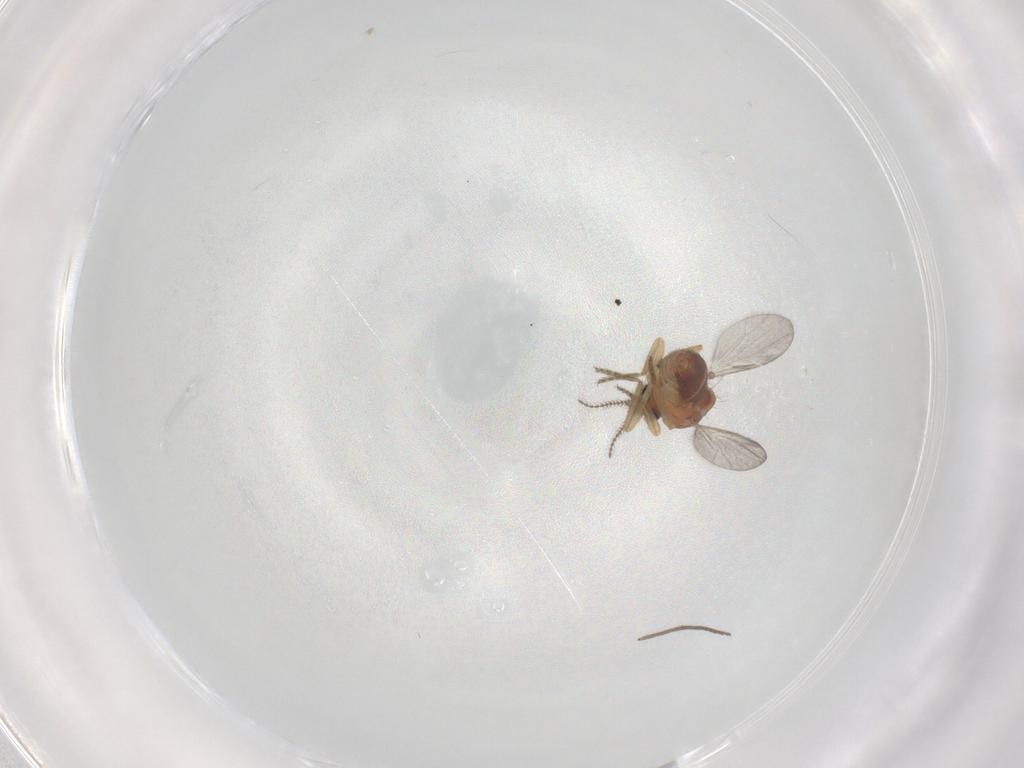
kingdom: Animalia
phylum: Arthropoda
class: Insecta
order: Diptera
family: Ceratopogonidae
